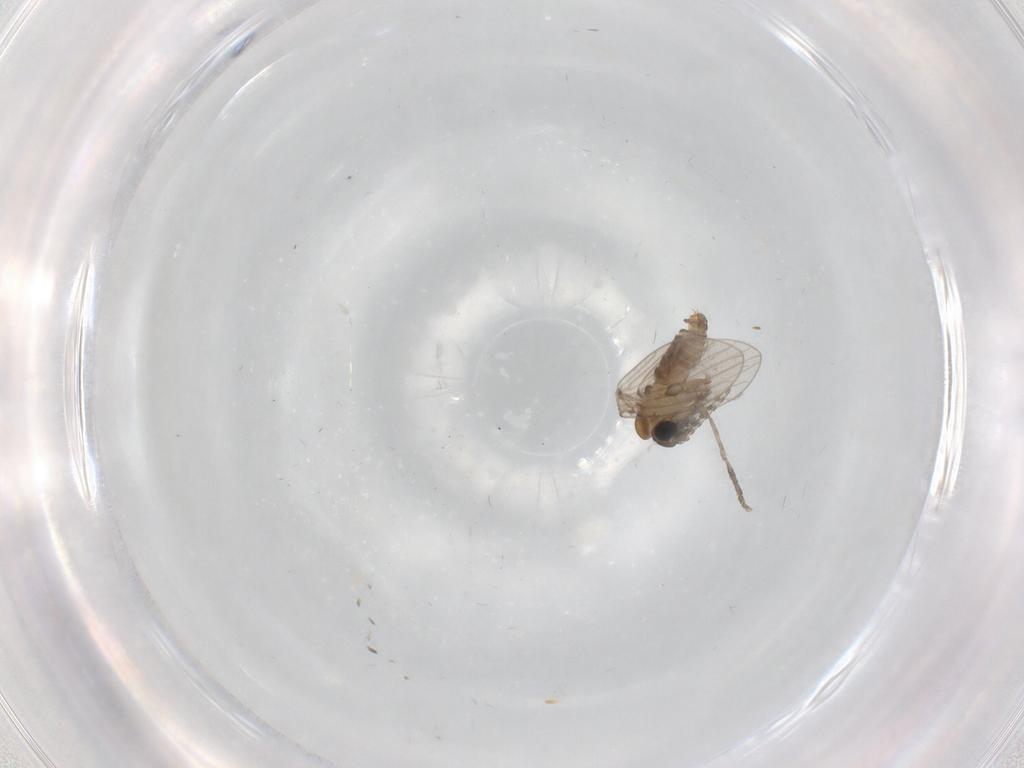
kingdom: Animalia
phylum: Arthropoda
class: Insecta
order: Diptera
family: Psychodidae
